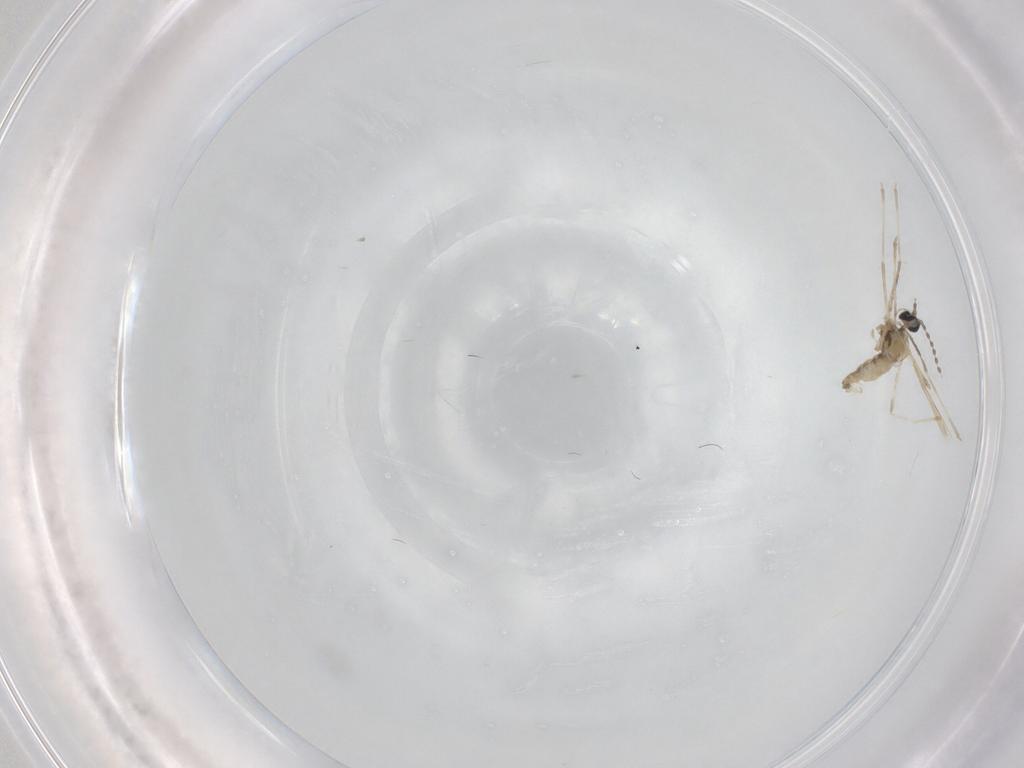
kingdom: Animalia
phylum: Arthropoda
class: Insecta
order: Diptera
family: Cecidomyiidae
